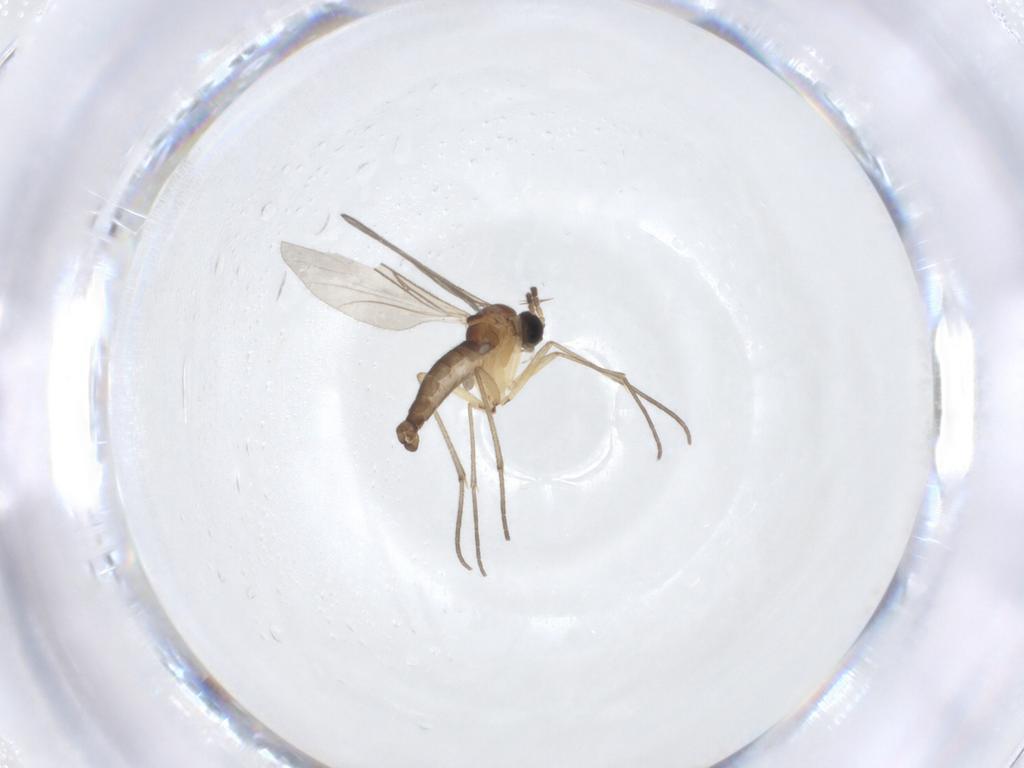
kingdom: Animalia
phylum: Arthropoda
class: Insecta
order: Diptera
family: Sciaridae
